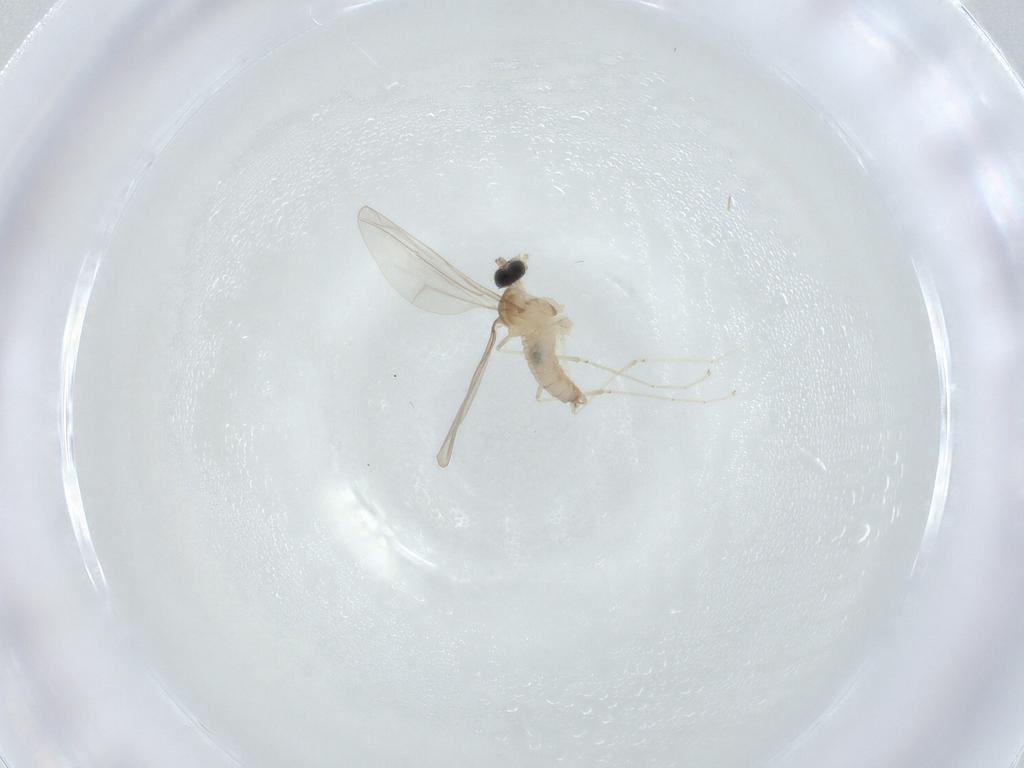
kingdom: Animalia
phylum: Arthropoda
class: Insecta
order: Diptera
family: Cecidomyiidae
